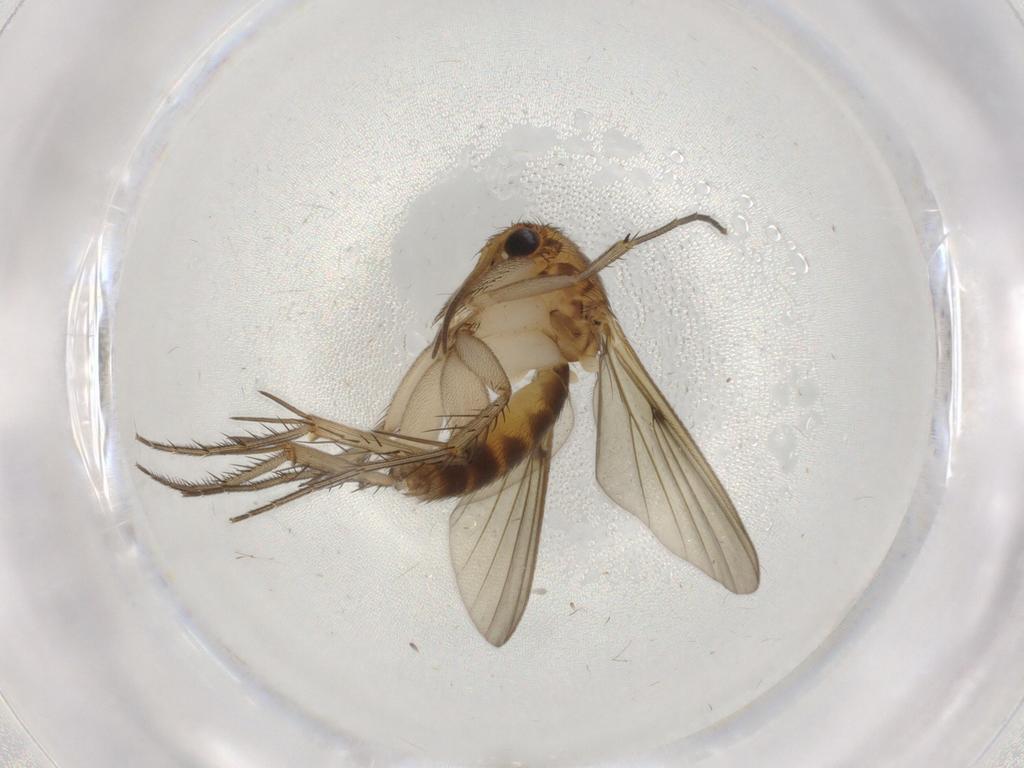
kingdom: Animalia
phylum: Arthropoda
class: Insecta
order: Diptera
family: Mycetophilidae
